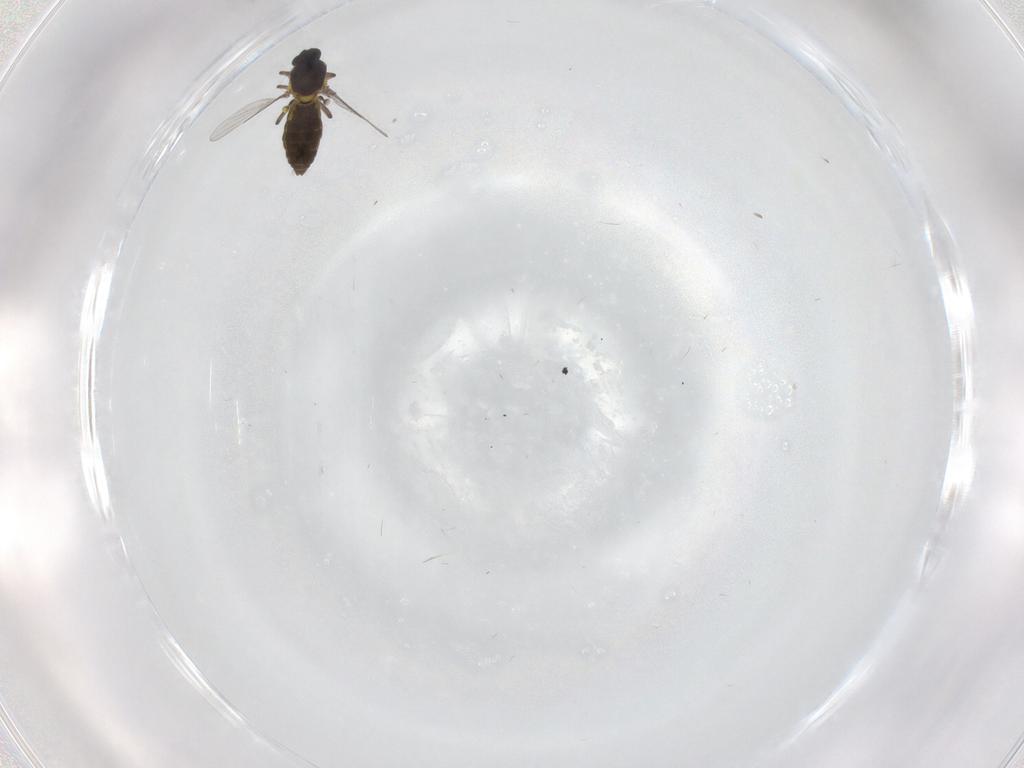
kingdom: Animalia
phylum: Arthropoda
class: Insecta
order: Diptera
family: Ceratopogonidae
